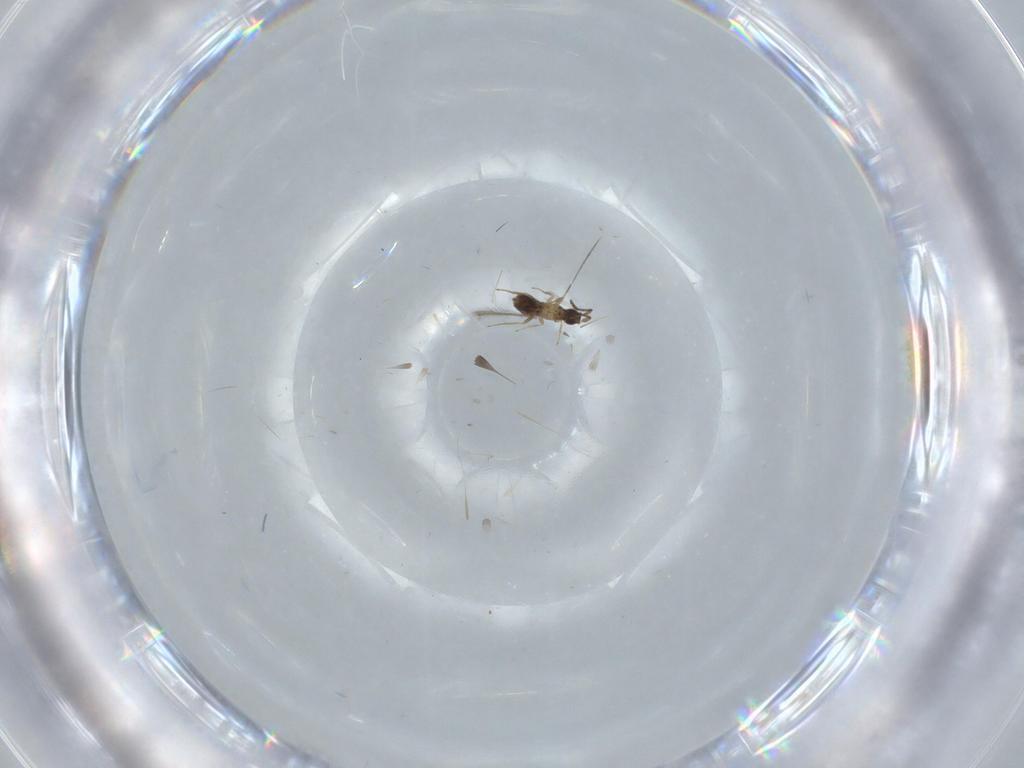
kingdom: Animalia
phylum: Arthropoda
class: Insecta
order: Hymenoptera
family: Mymaridae
